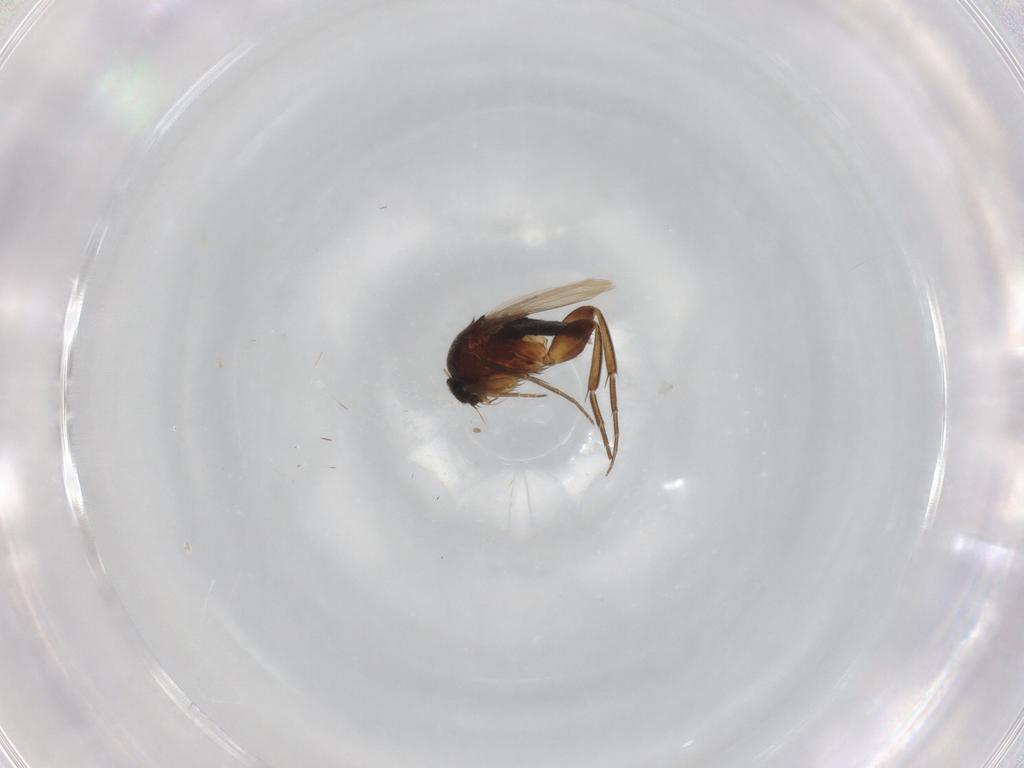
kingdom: Animalia
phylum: Arthropoda
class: Insecta
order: Diptera
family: Phoridae
